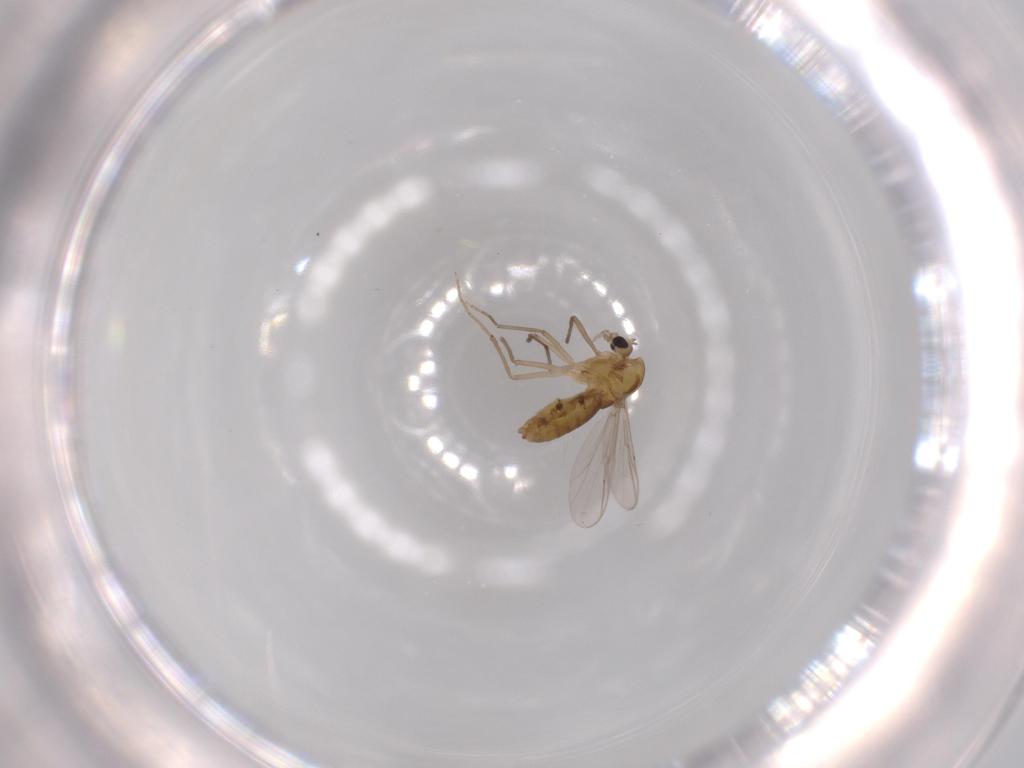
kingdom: Animalia
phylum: Arthropoda
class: Insecta
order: Diptera
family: Chironomidae
